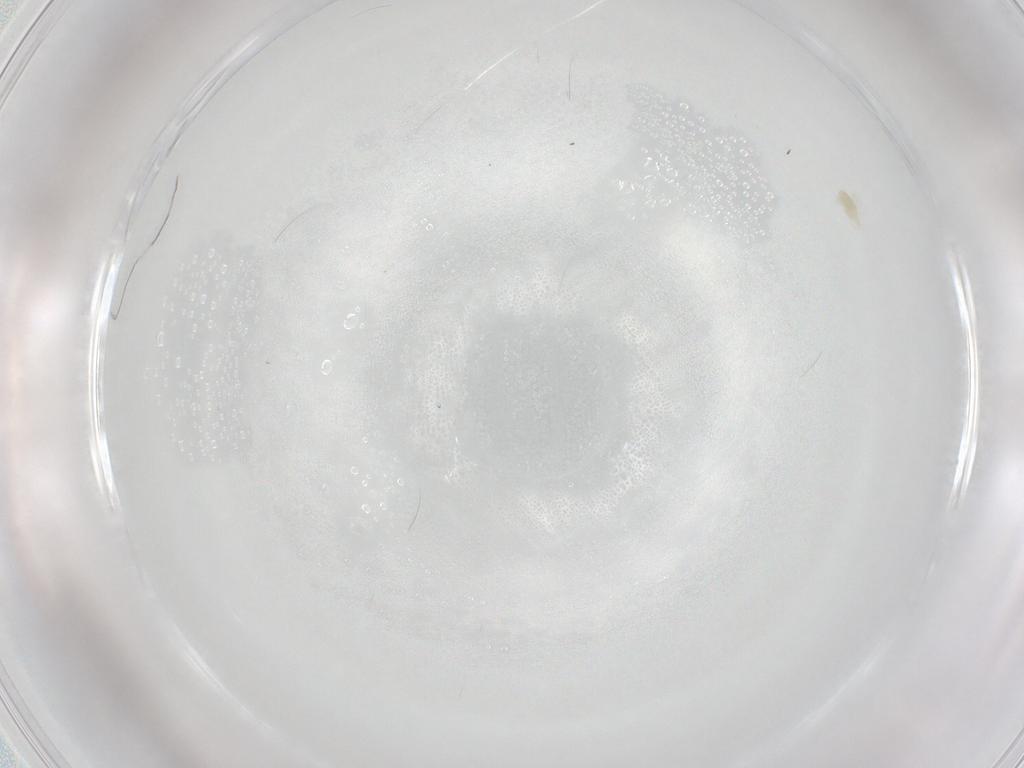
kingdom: Animalia
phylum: Arthropoda
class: Arachnida
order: Trombidiformes
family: Eupodidae
